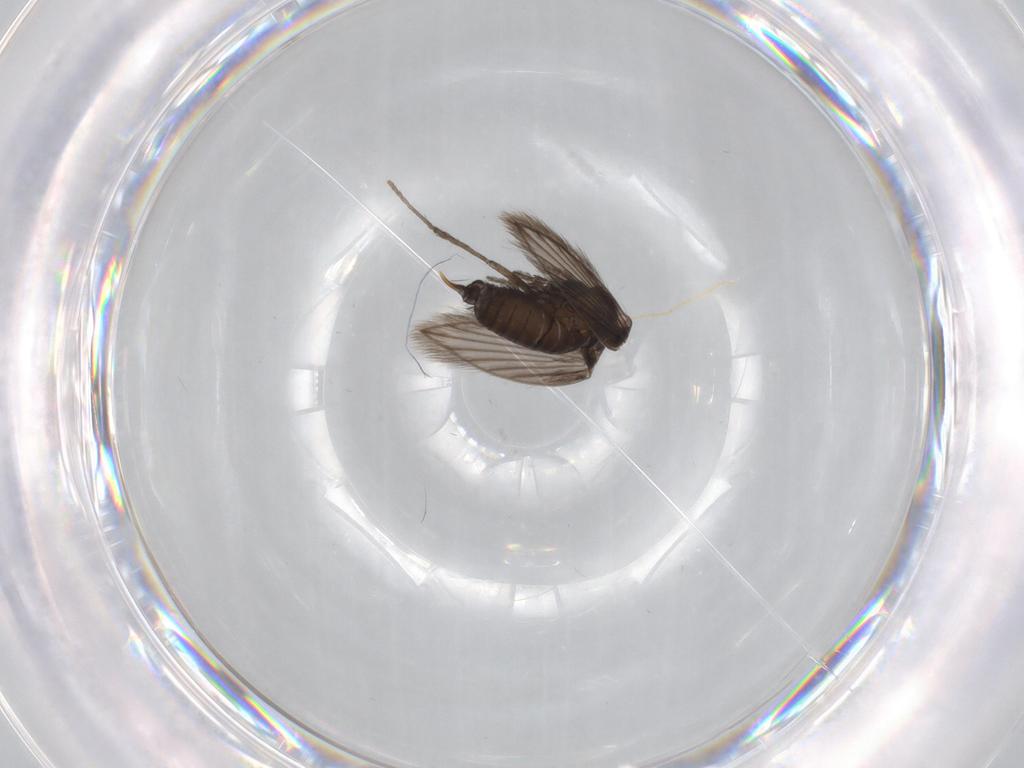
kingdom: Animalia
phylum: Arthropoda
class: Insecta
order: Diptera
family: Psychodidae
